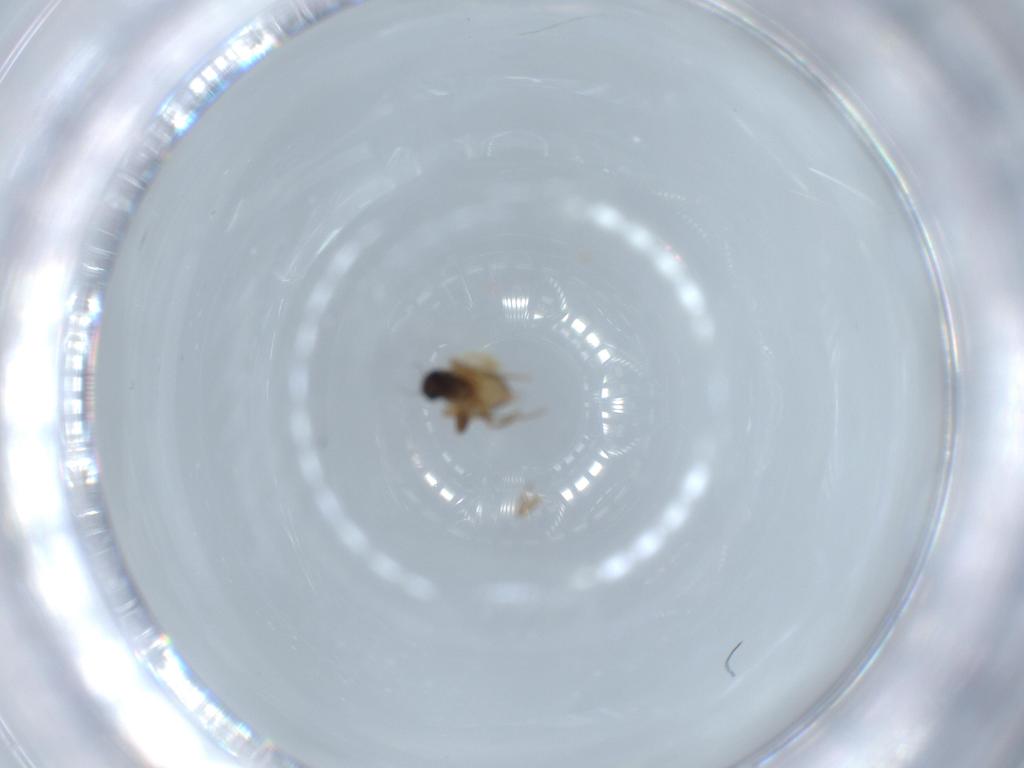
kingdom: Animalia
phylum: Arthropoda
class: Insecta
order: Diptera
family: Phoridae
